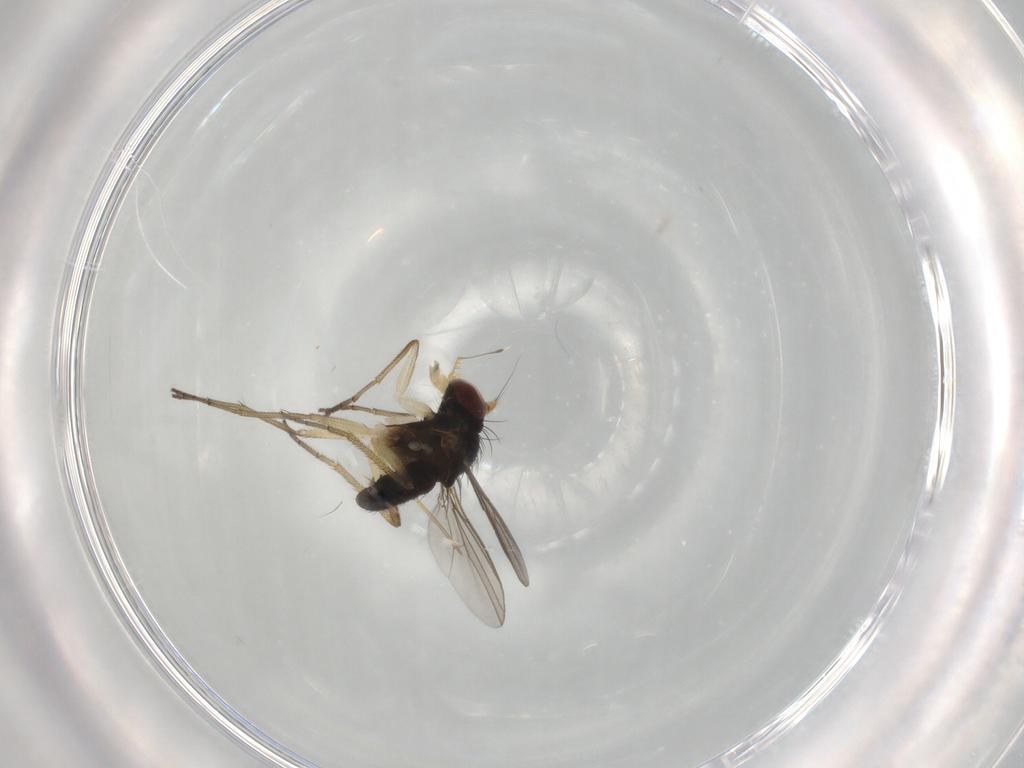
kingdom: Animalia
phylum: Arthropoda
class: Insecta
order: Diptera
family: Dolichopodidae
